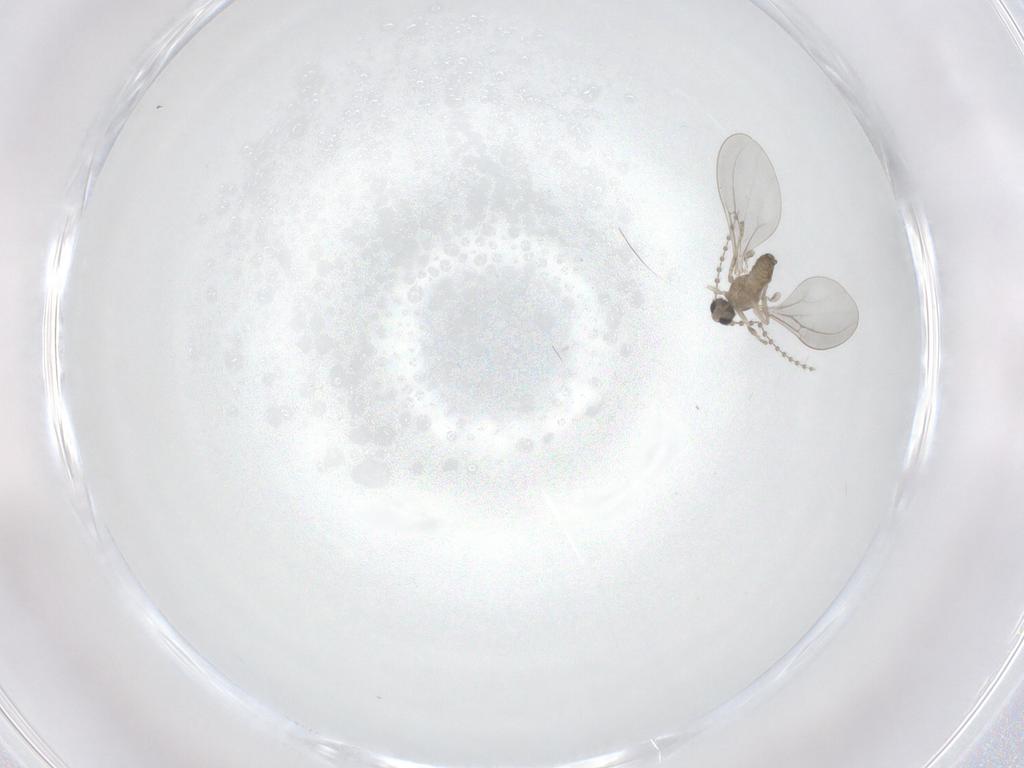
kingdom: Animalia
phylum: Arthropoda
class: Insecta
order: Diptera
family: Cecidomyiidae
